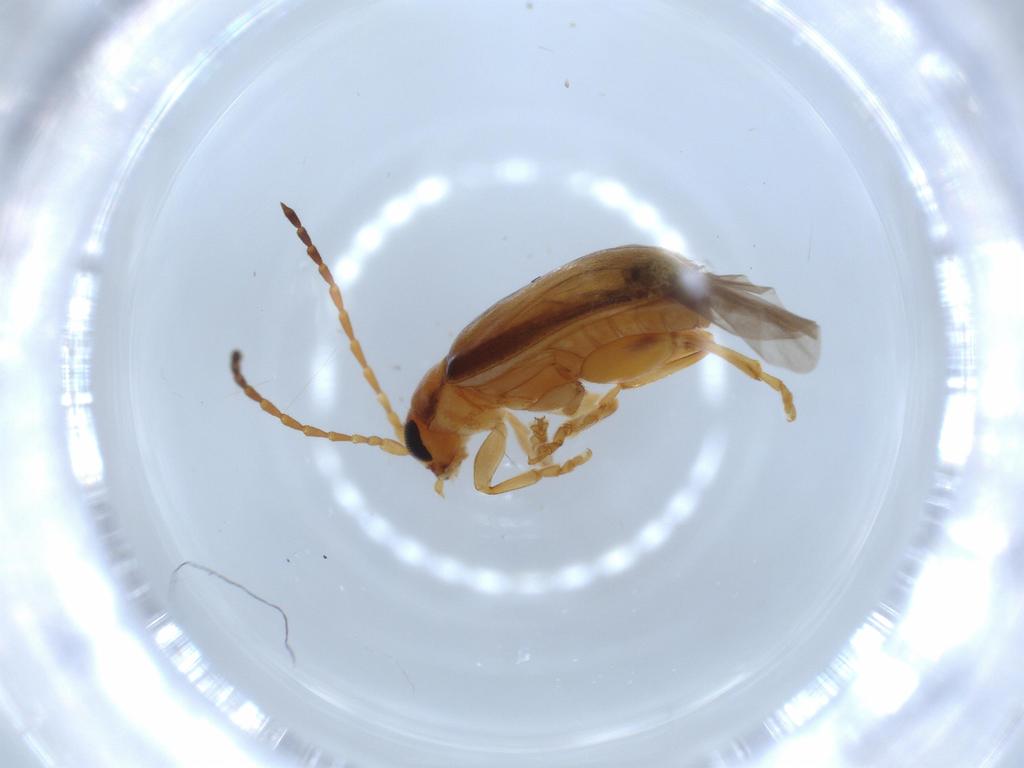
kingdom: Animalia
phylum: Arthropoda
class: Insecta
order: Coleoptera
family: Chrysomelidae
